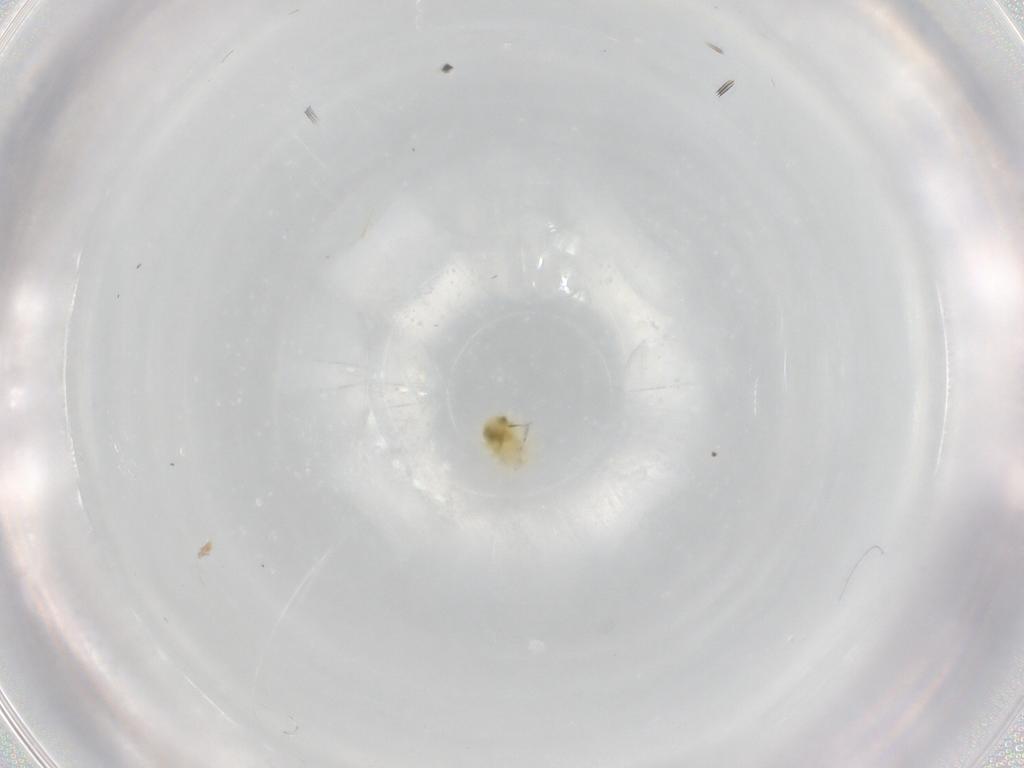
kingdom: Animalia
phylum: Arthropoda
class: Arachnida
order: Trombidiformes
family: Anystidae
